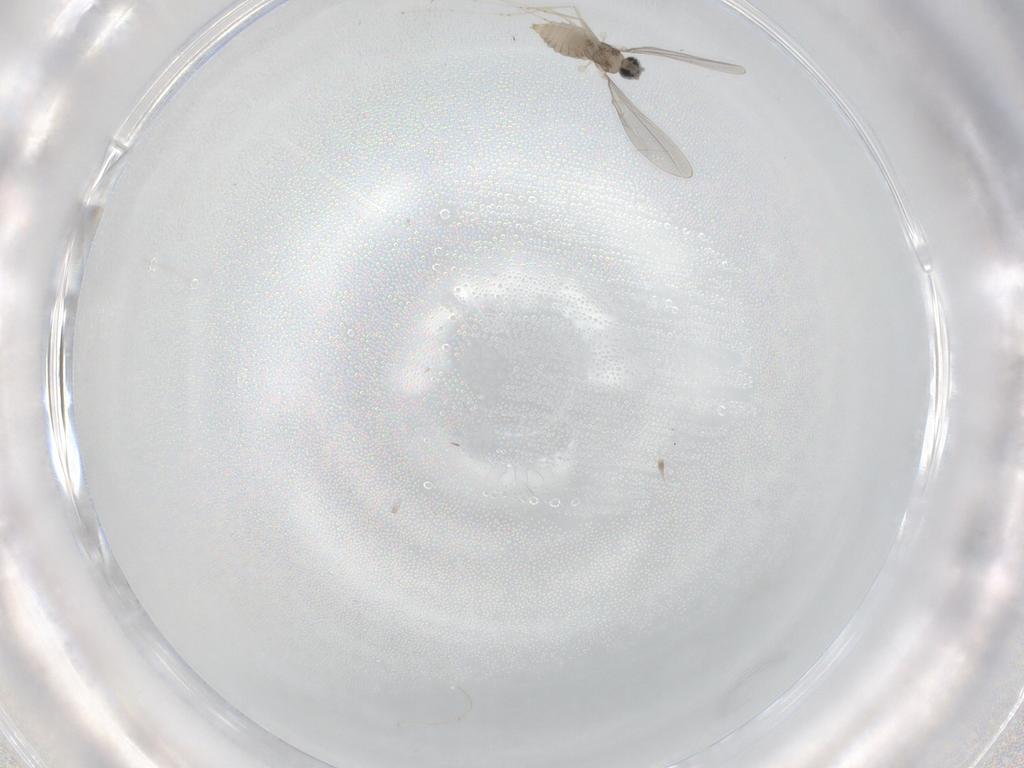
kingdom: Animalia
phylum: Arthropoda
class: Insecta
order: Diptera
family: Cecidomyiidae
